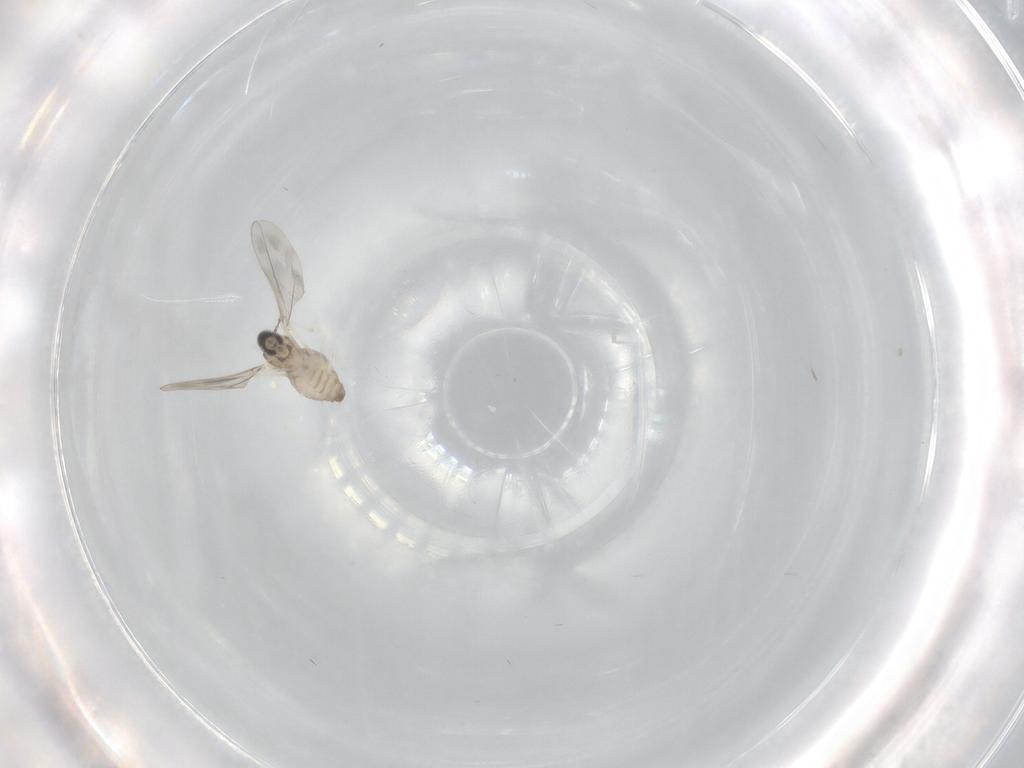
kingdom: Animalia
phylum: Arthropoda
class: Insecta
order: Diptera
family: Cecidomyiidae
